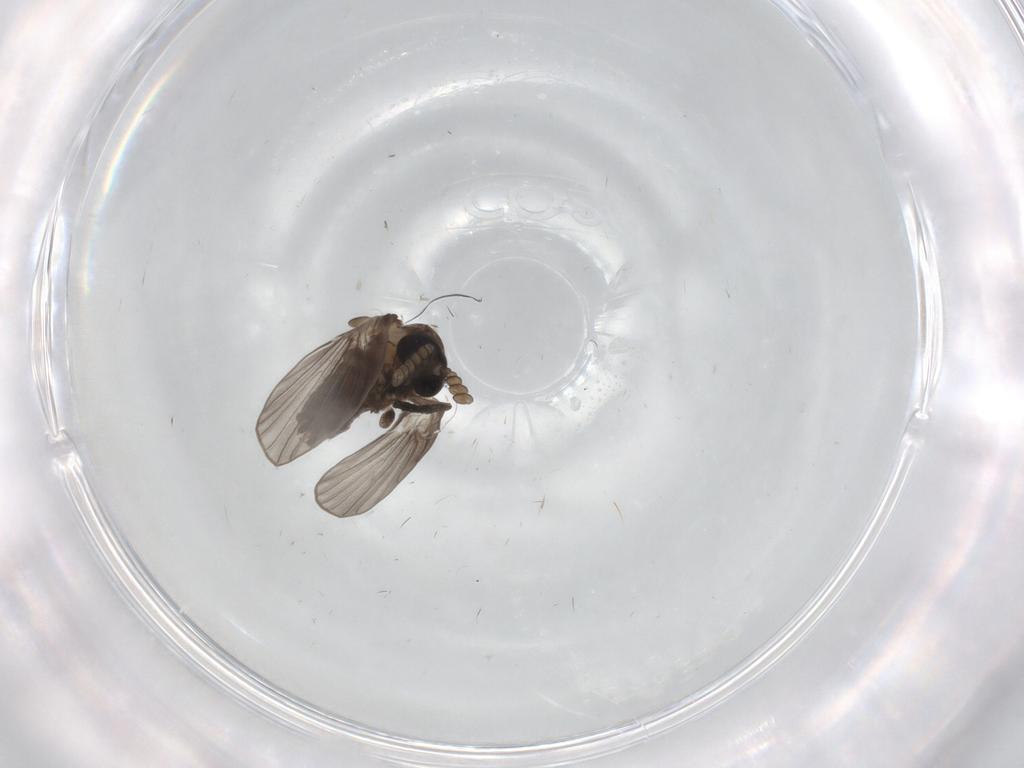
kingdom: Animalia
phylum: Arthropoda
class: Insecta
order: Diptera
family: Psychodidae
